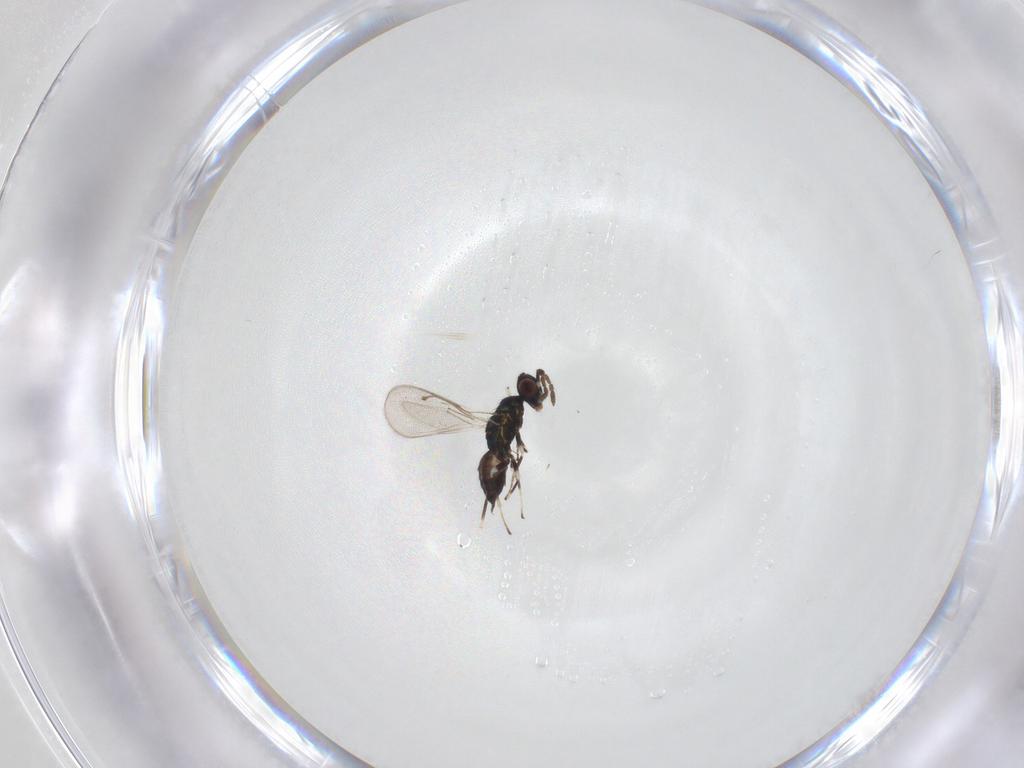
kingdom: Animalia
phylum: Arthropoda
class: Insecta
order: Hymenoptera
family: Eulophidae
